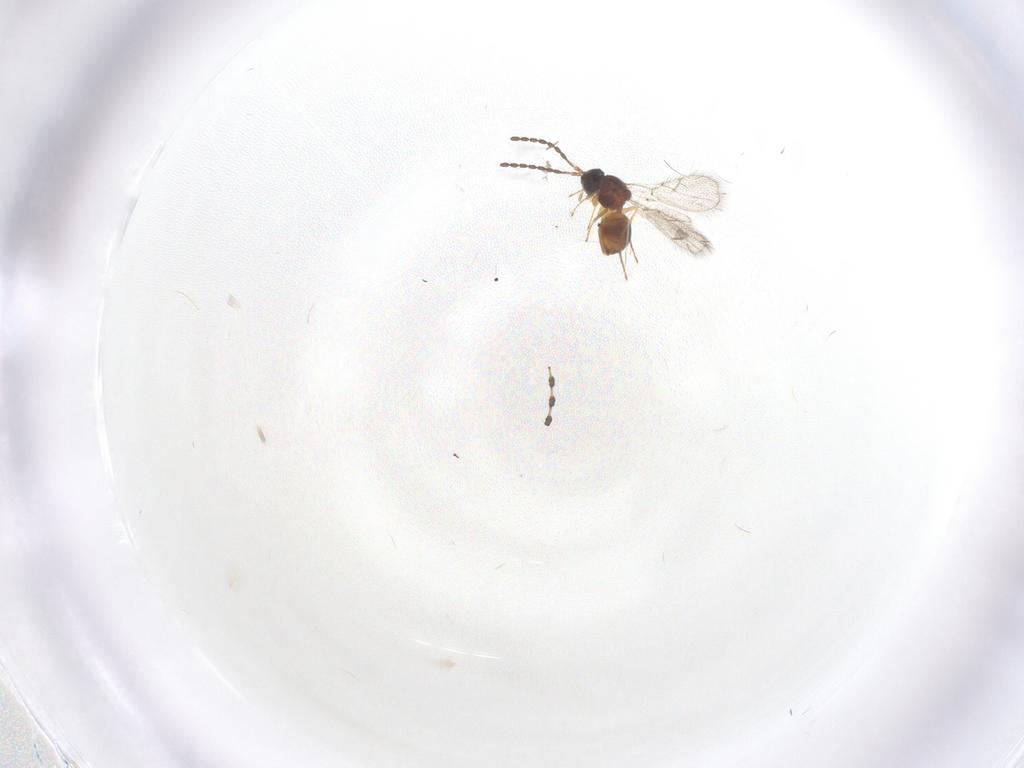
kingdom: Animalia
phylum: Arthropoda
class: Insecta
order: Hymenoptera
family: Figitidae
